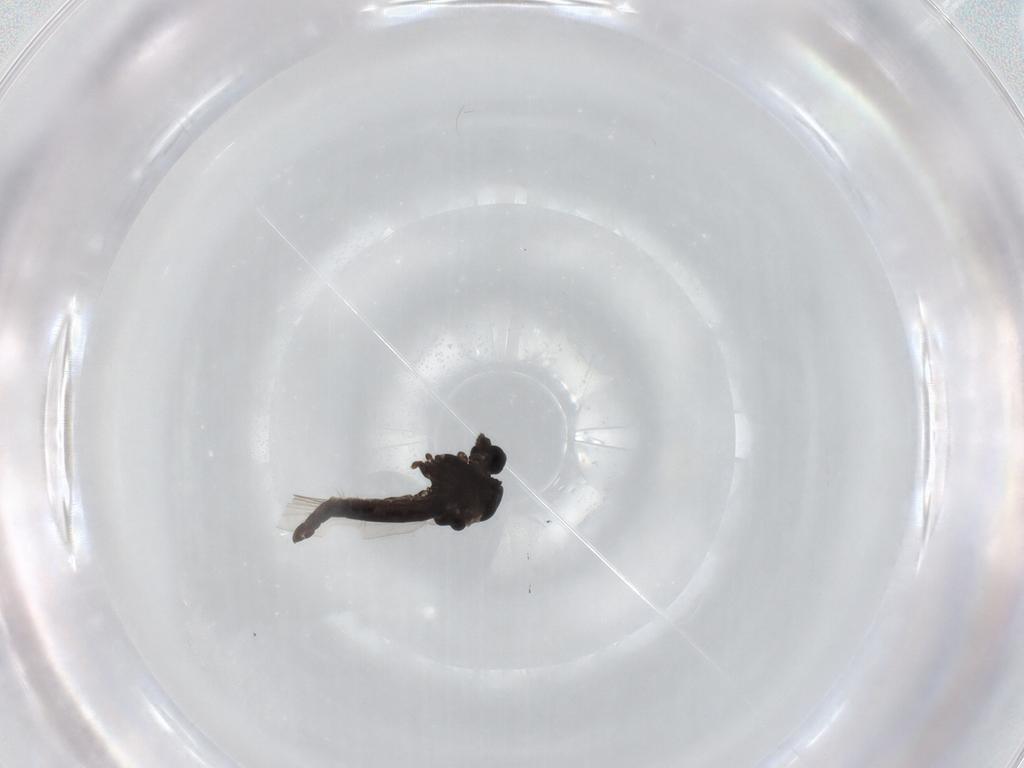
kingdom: Animalia
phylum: Arthropoda
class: Insecta
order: Diptera
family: Chironomidae
